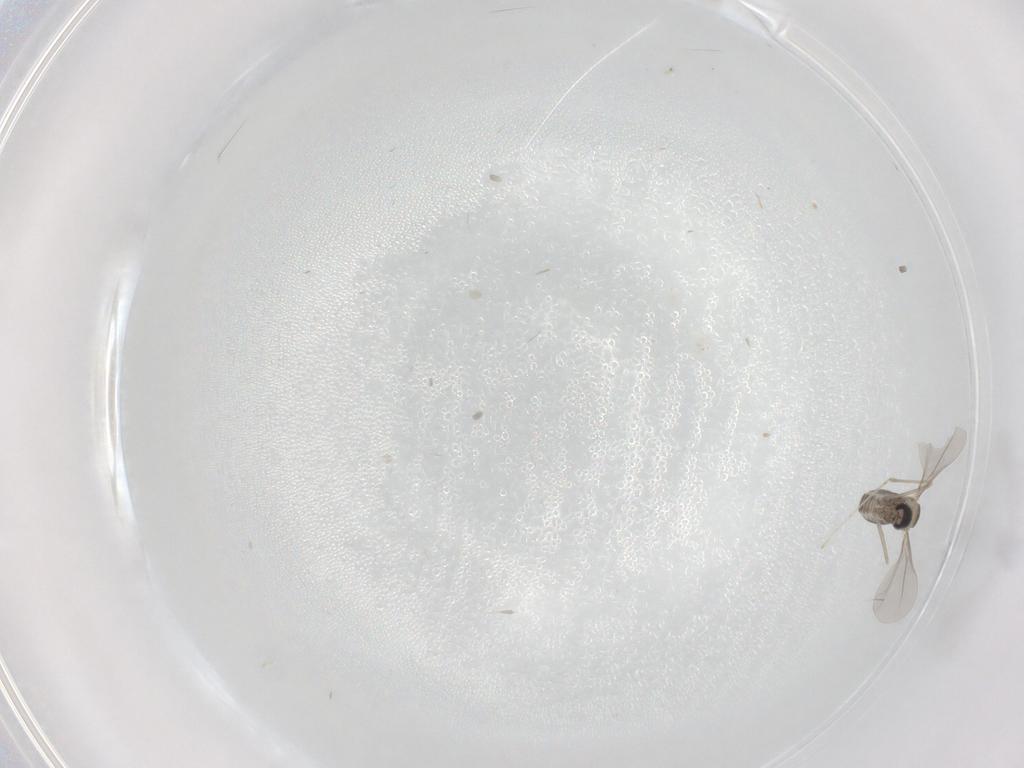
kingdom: Animalia
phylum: Arthropoda
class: Insecta
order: Diptera
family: Cecidomyiidae
